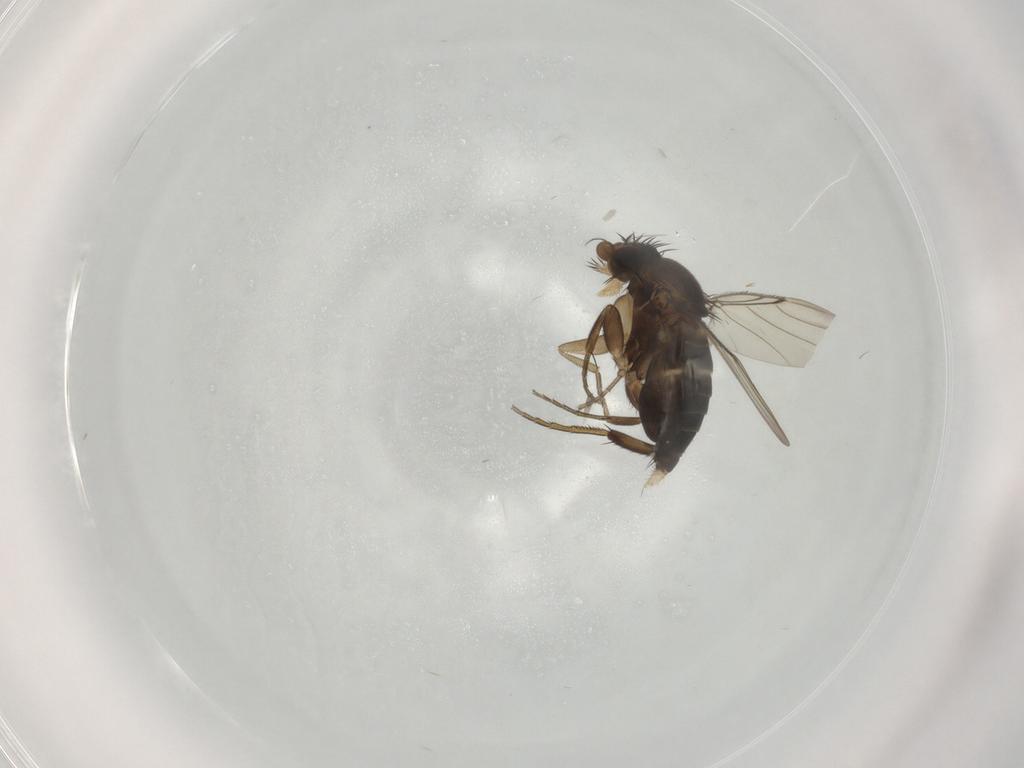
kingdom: Animalia
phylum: Arthropoda
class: Insecta
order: Diptera
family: Phoridae
